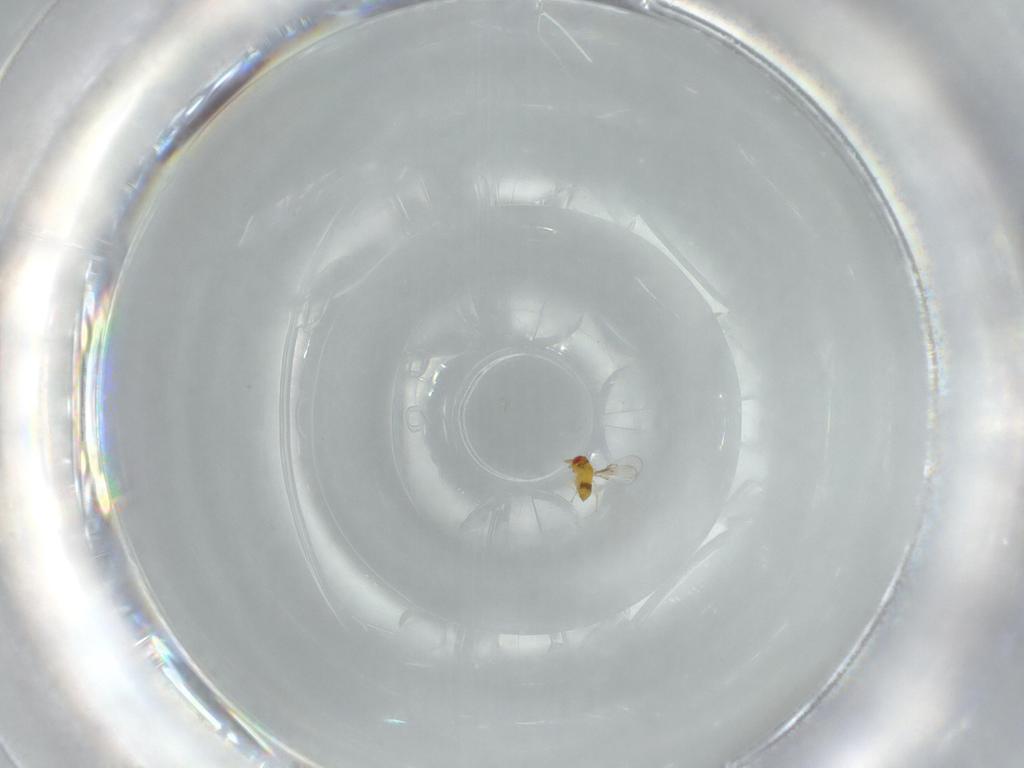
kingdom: Animalia
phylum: Arthropoda
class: Insecta
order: Hymenoptera
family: Trichogrammatidae
